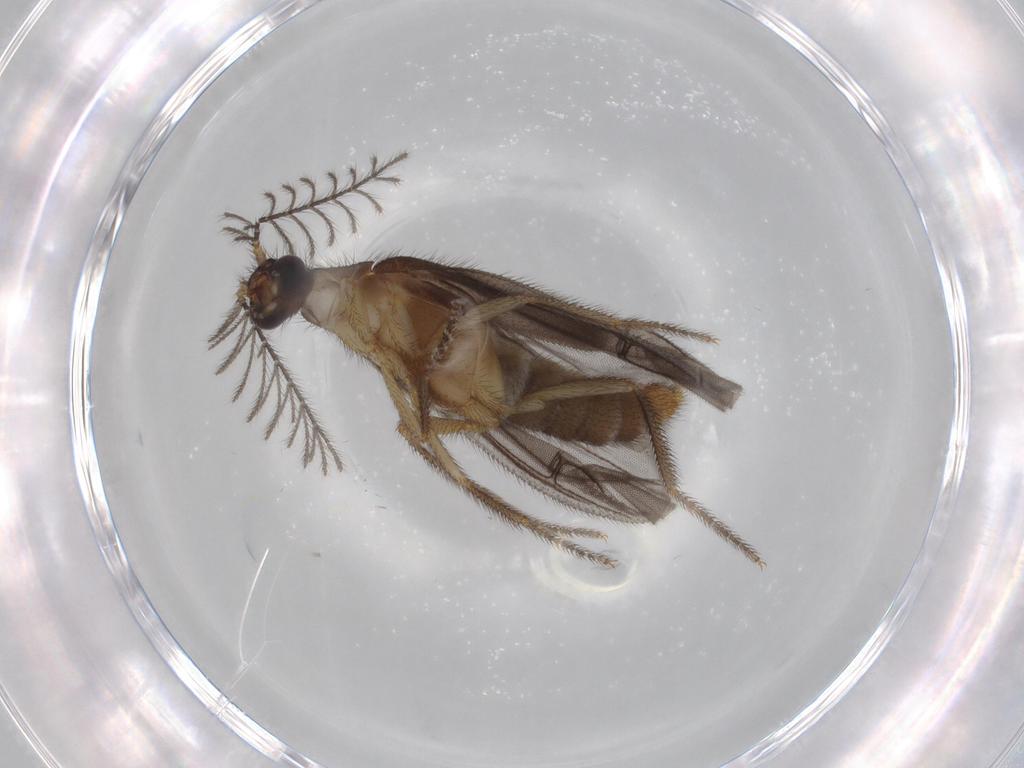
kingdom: Animalia
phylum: Arthropoda
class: Insecta
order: Coleoptera
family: Phengodidae
